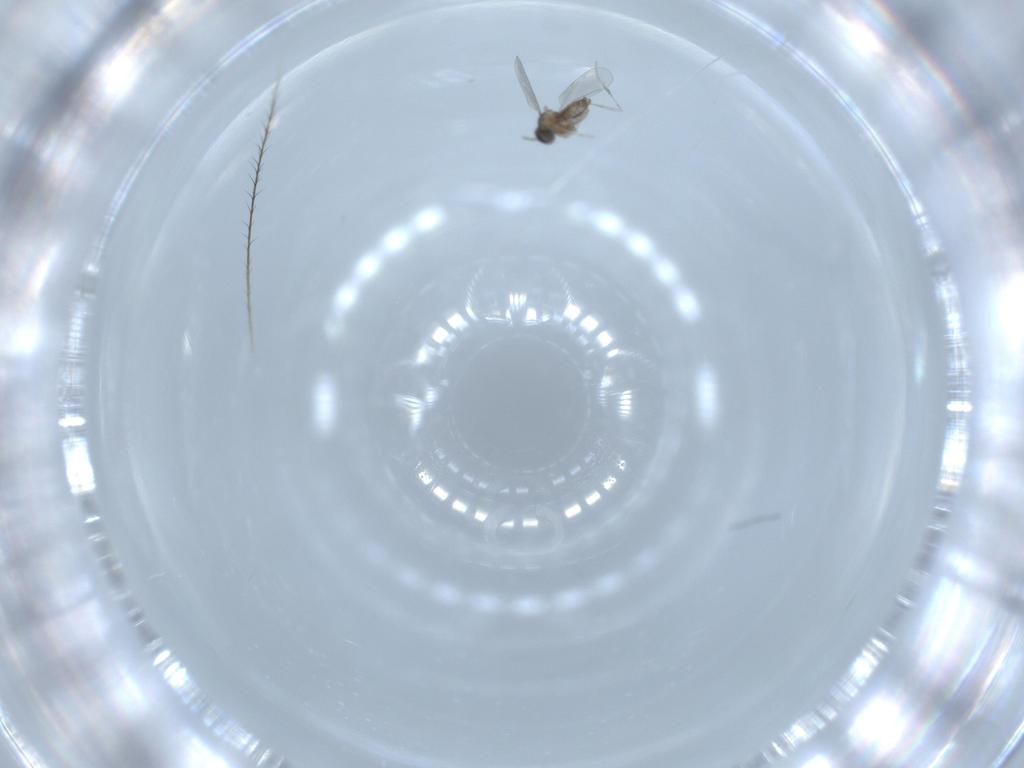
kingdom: Animalia
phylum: Arthropoda
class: Insecta
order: Diptera
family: Cecidomyiidae
